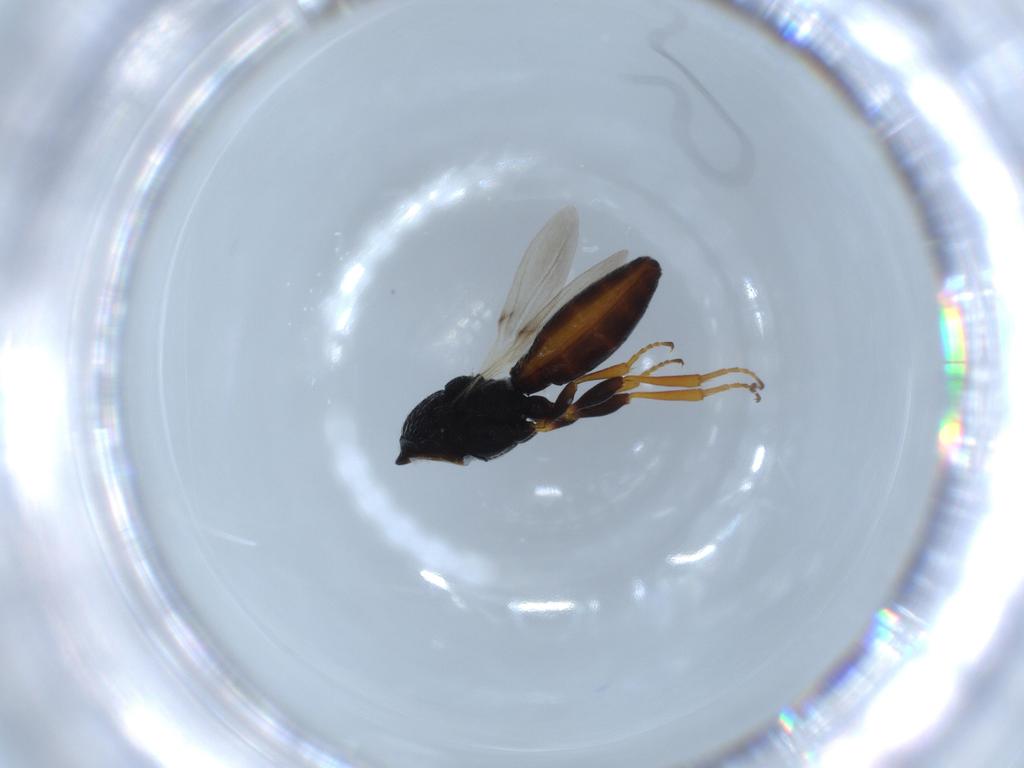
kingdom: Animalia
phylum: Arthropoda
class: Insecta
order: Hymenoptera
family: Scelionidae
